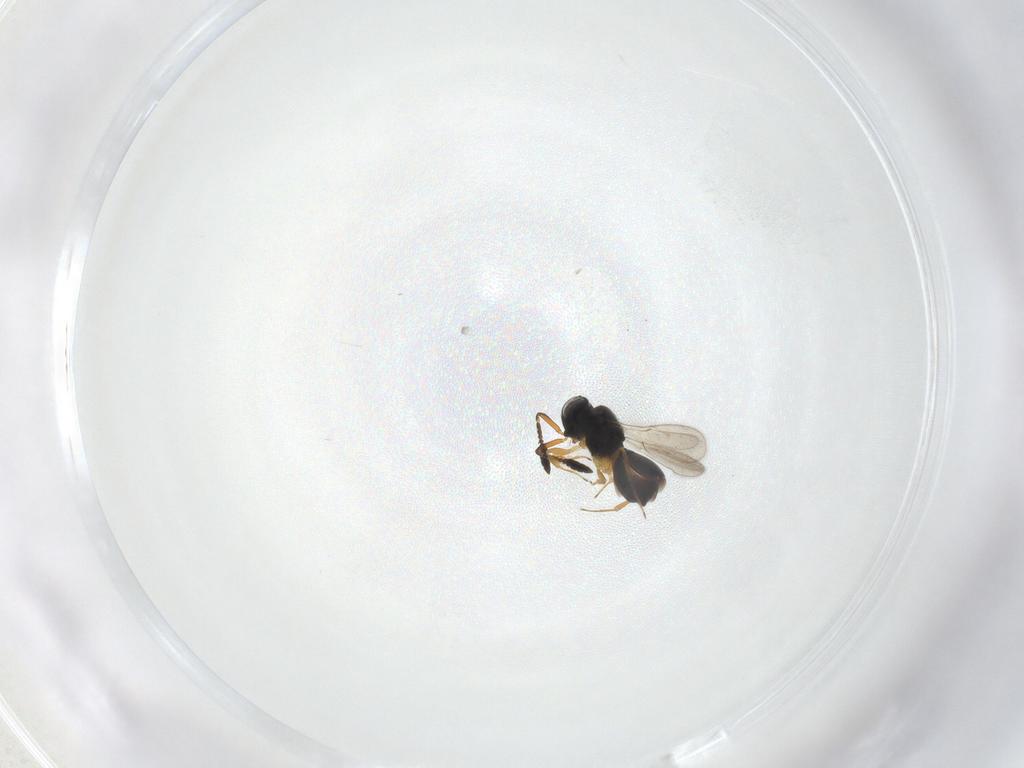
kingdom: Animalia
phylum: Arthropoda
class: Insecta
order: Hymenoptera
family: Scelionidae
